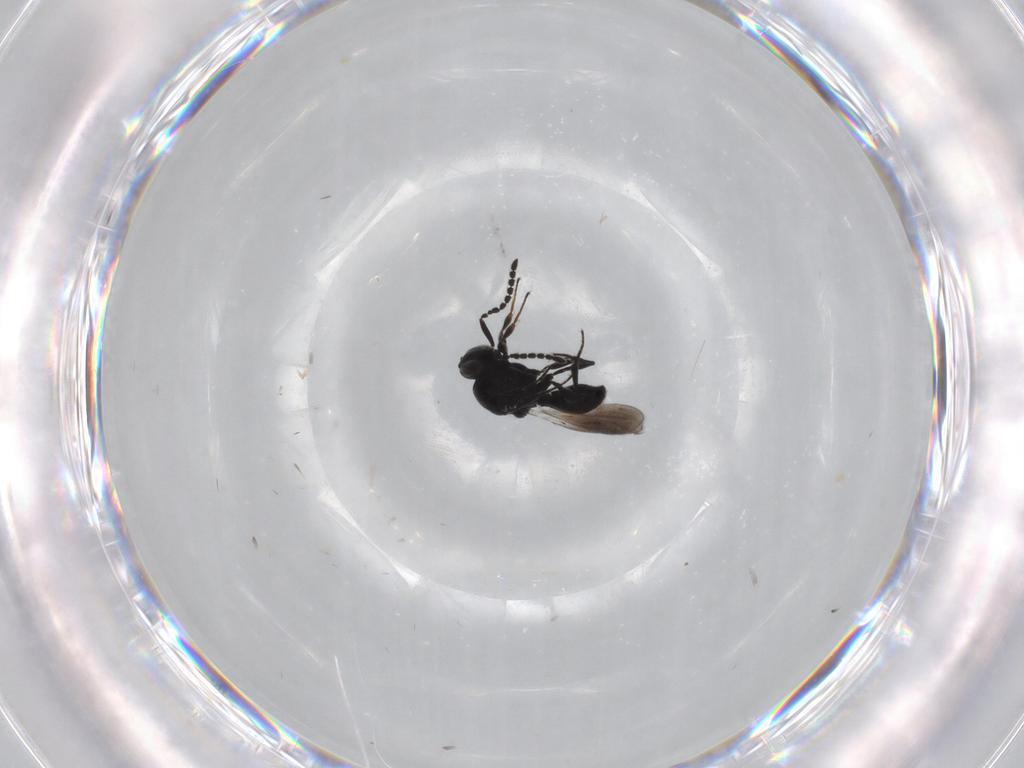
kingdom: Animalia
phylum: Arthropoda
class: Insecta
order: Hymenoptera
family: Platygastridae
